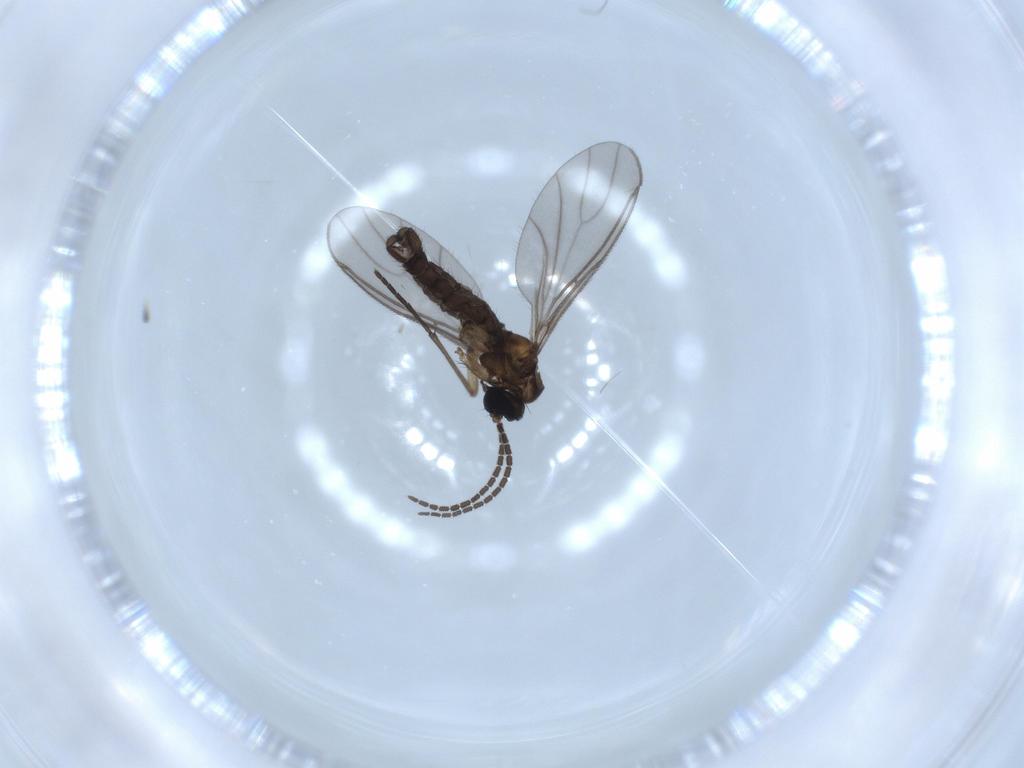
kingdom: Animalia
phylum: Arthropoda
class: Insecta
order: Diptera
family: Sciaridae
